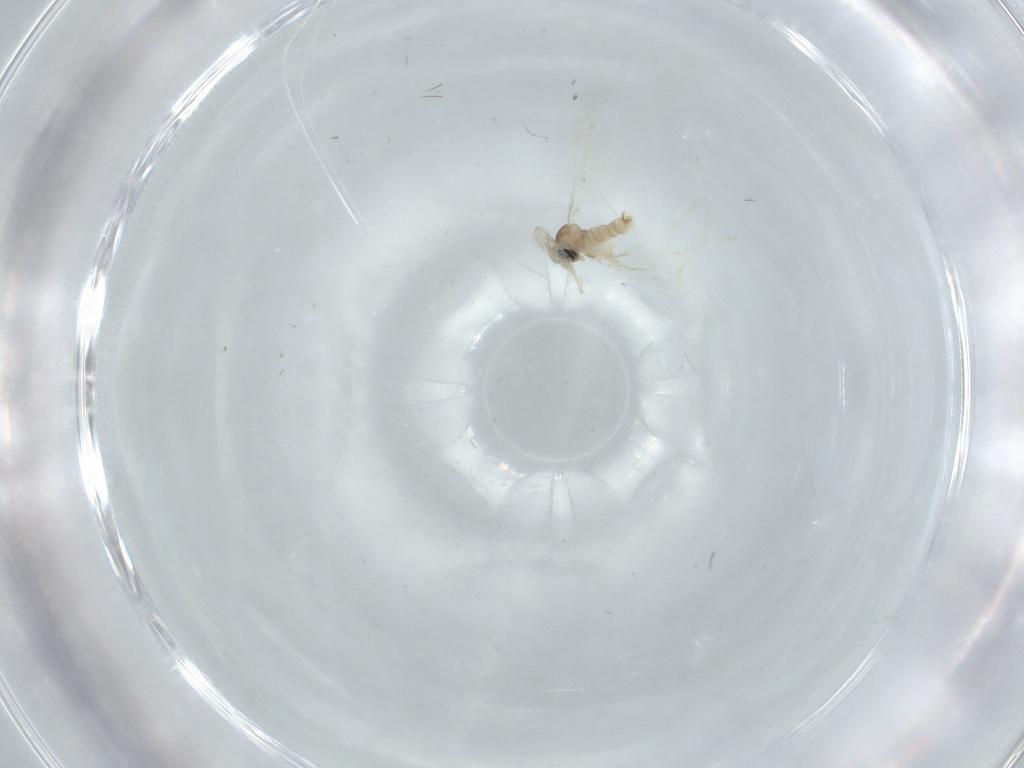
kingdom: Animalia
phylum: Arthropoda
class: Insecta
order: Diptera
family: Cecidomyiidae
